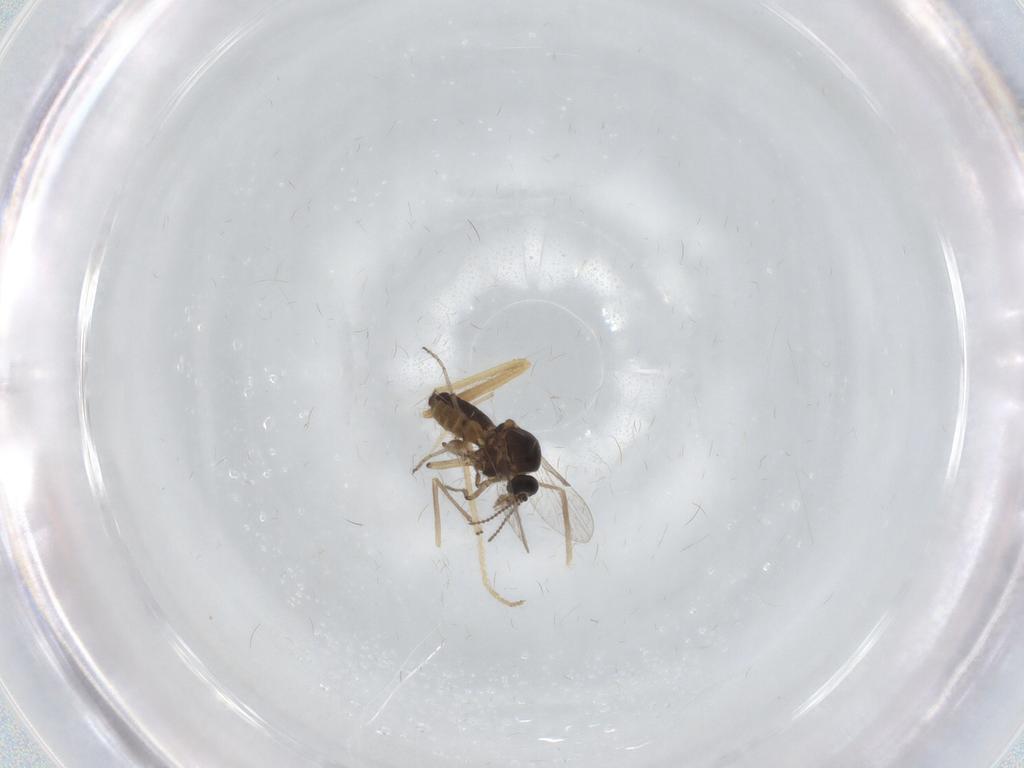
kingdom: Animalia
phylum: Arthropoda
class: Insecta
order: Diptera
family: Ceratopogonidae
